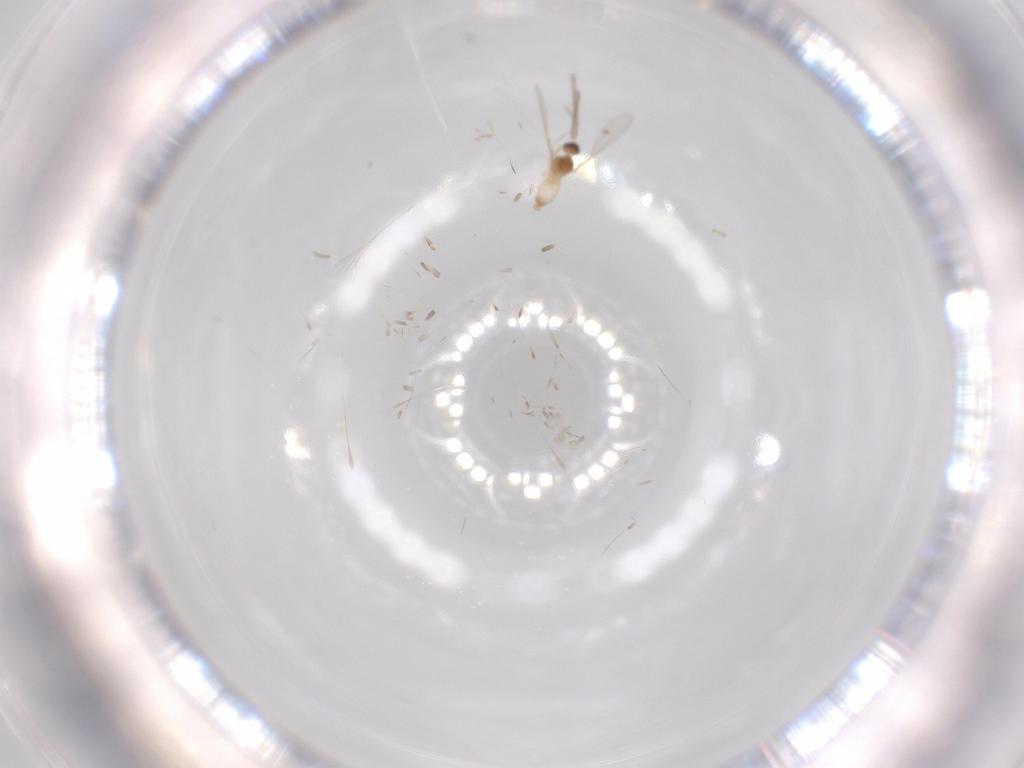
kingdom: Animalia
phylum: Arthropoda
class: Insecta
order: Diptera
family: Cecidomyiidae
